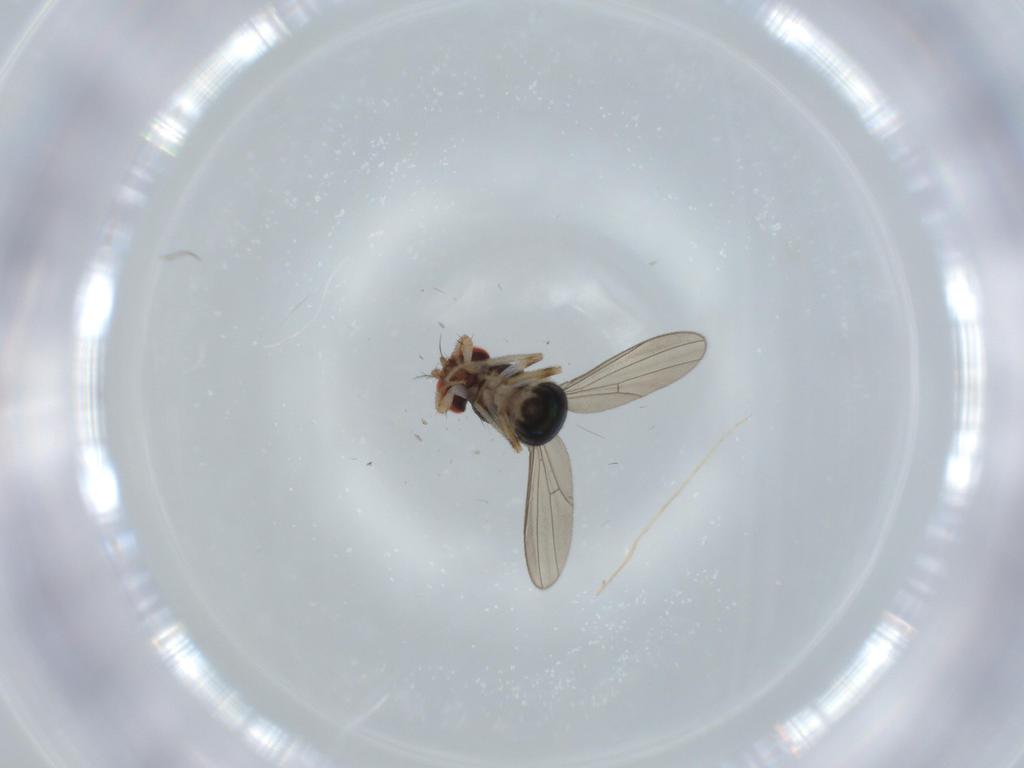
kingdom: Animalia
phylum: Arthropoda
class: Insecta
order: Diptera
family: Drosophilidae
